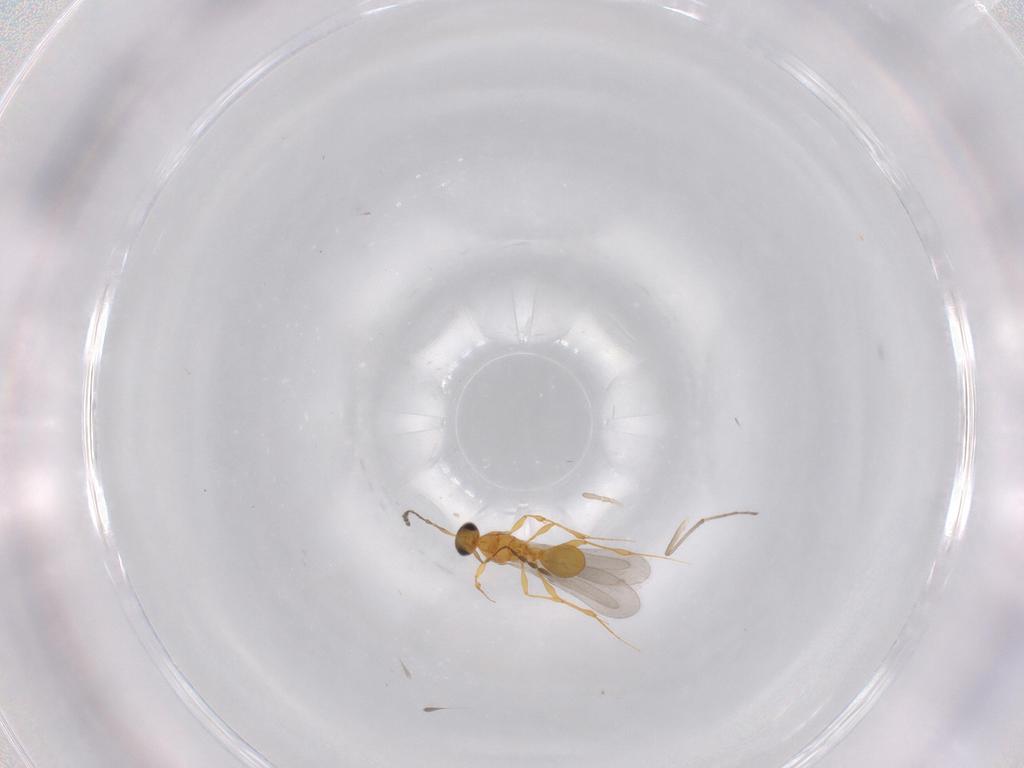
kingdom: Animalia
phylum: Arthropoda
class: Insecta
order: Hymenoptera
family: Platygastridae
